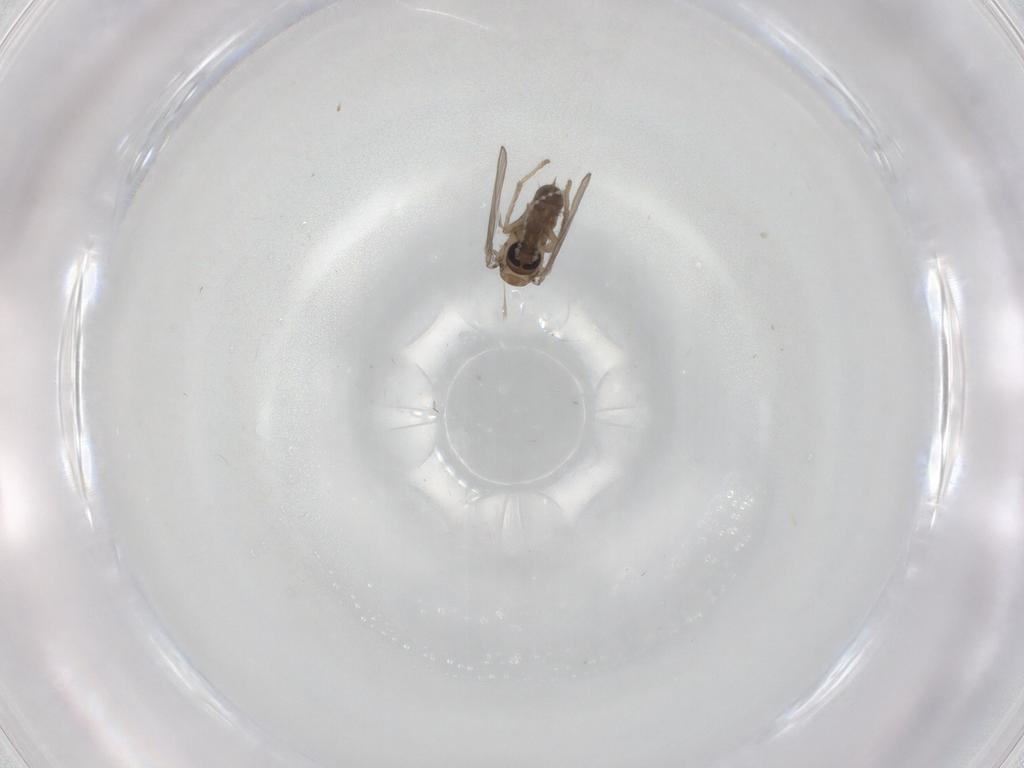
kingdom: Animalia
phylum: Arthropoda
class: Insecta
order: Diptera
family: Psychodidae
